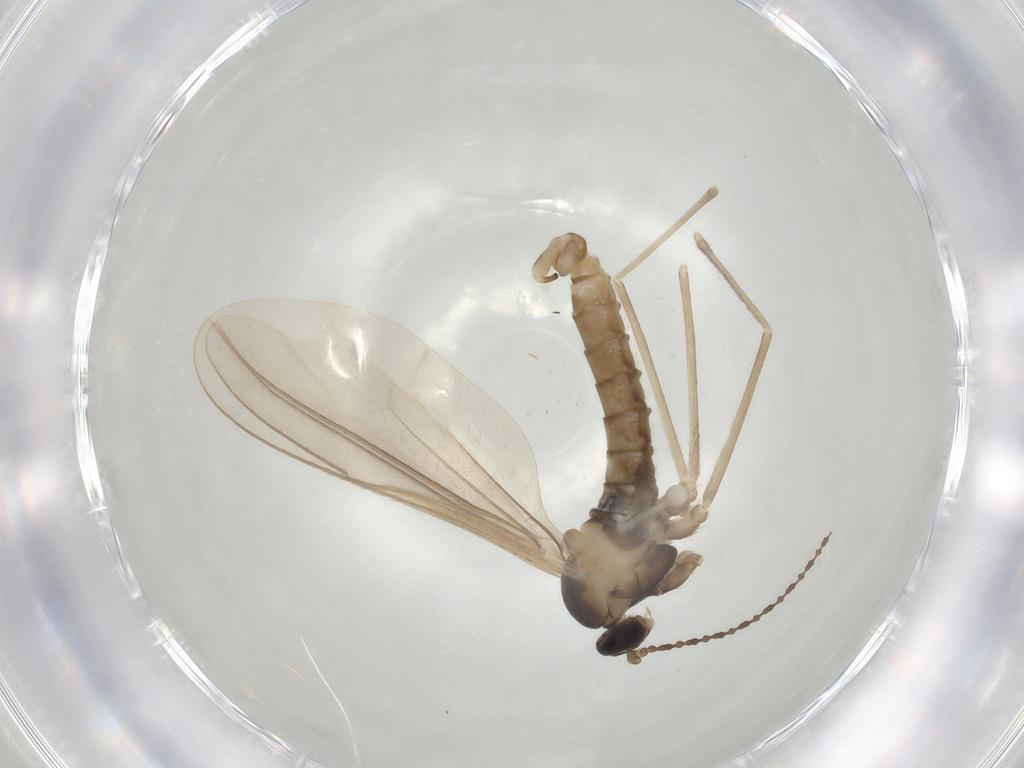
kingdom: Animalia
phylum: Arthropoda
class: Insecta
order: Diptera
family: Cecidomyiidae
